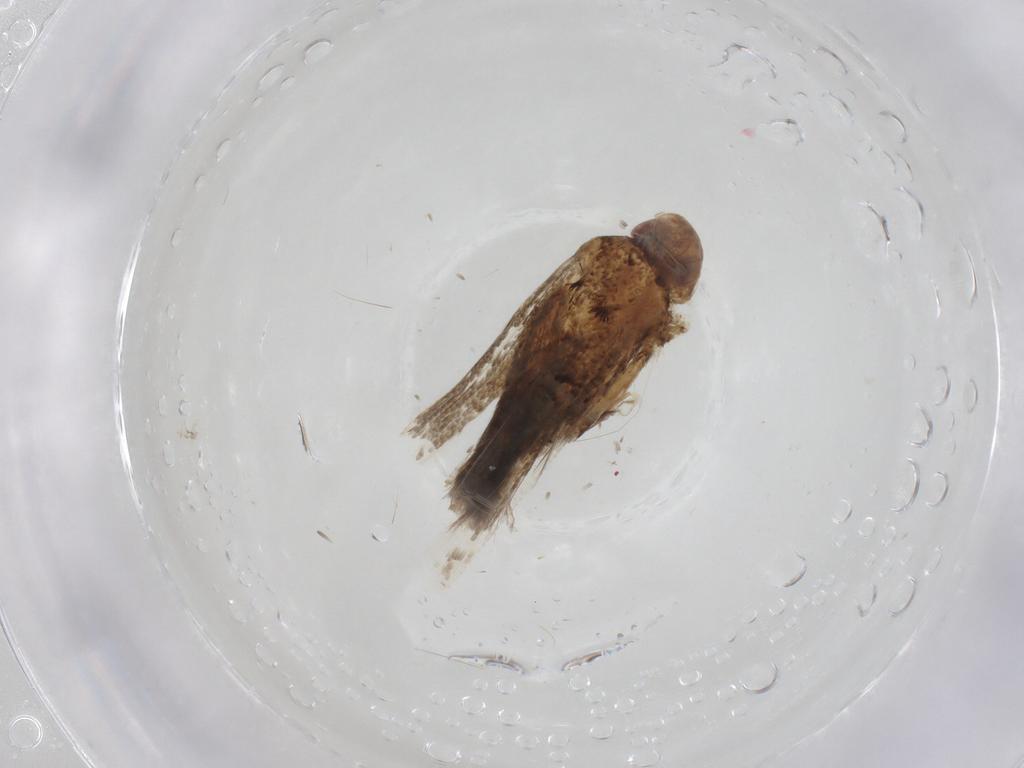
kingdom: Animalia
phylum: Arthropoda
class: Insecta
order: Lepidoptera
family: Cosmopterigidae
